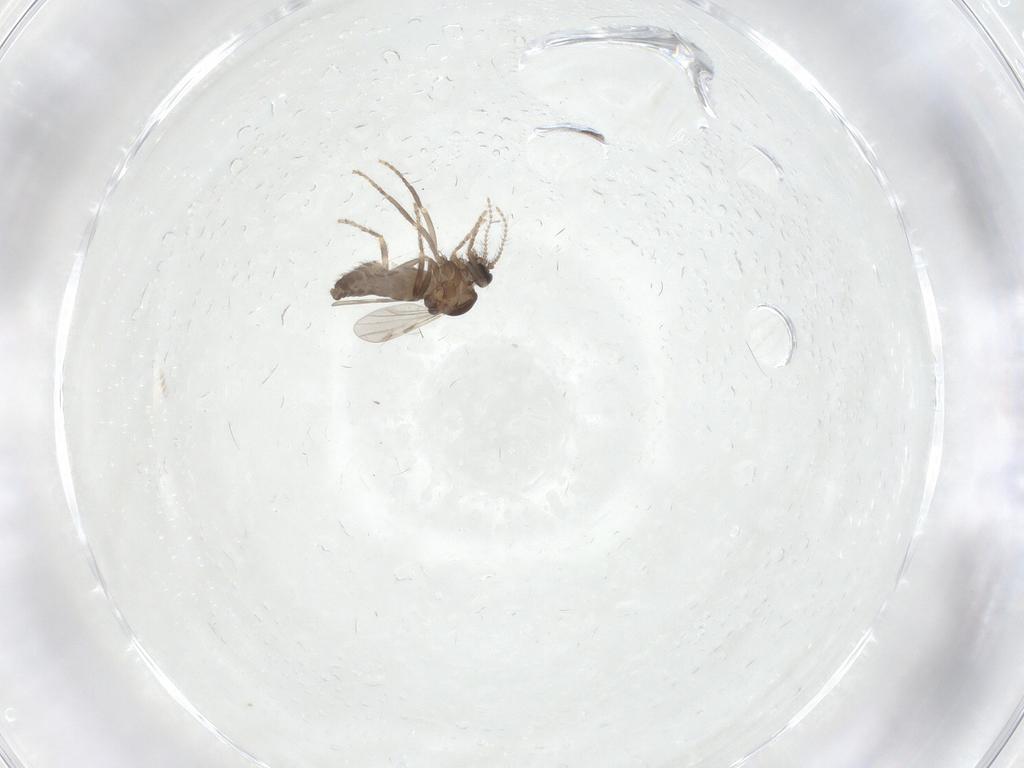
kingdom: Animalia
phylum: Arthropoda
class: Insecta
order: Diptera
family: Ceratopogonidae
